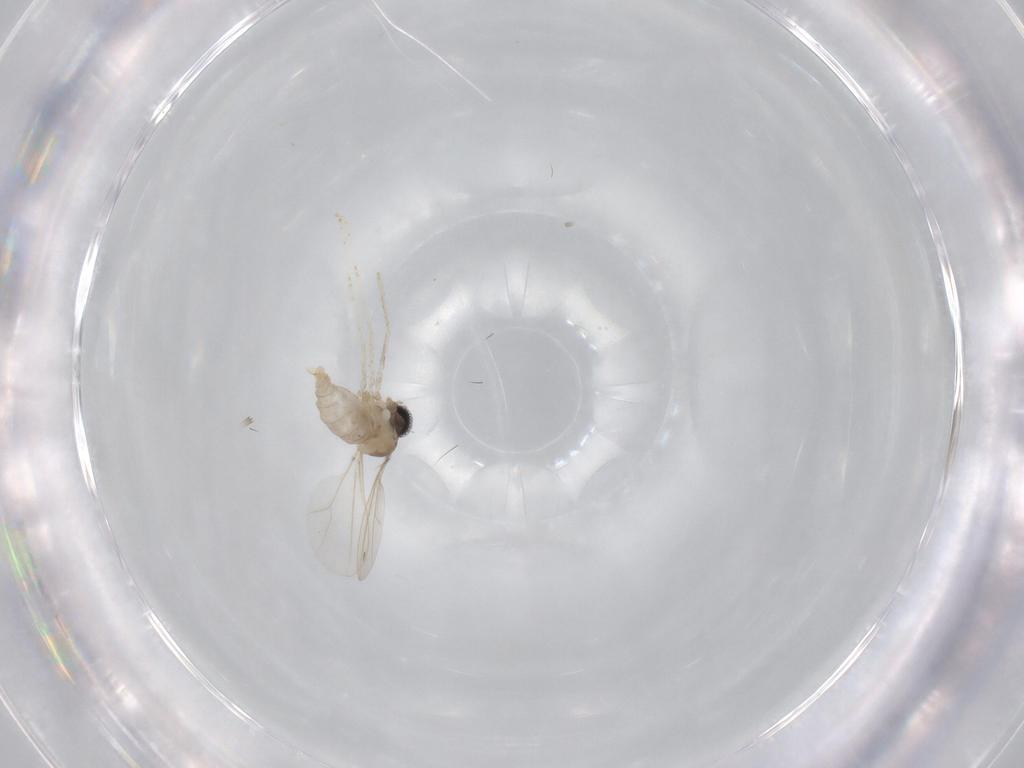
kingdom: Animalia
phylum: Arthropoda
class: Insecta
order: Diptera
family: Cecidomyiidae
